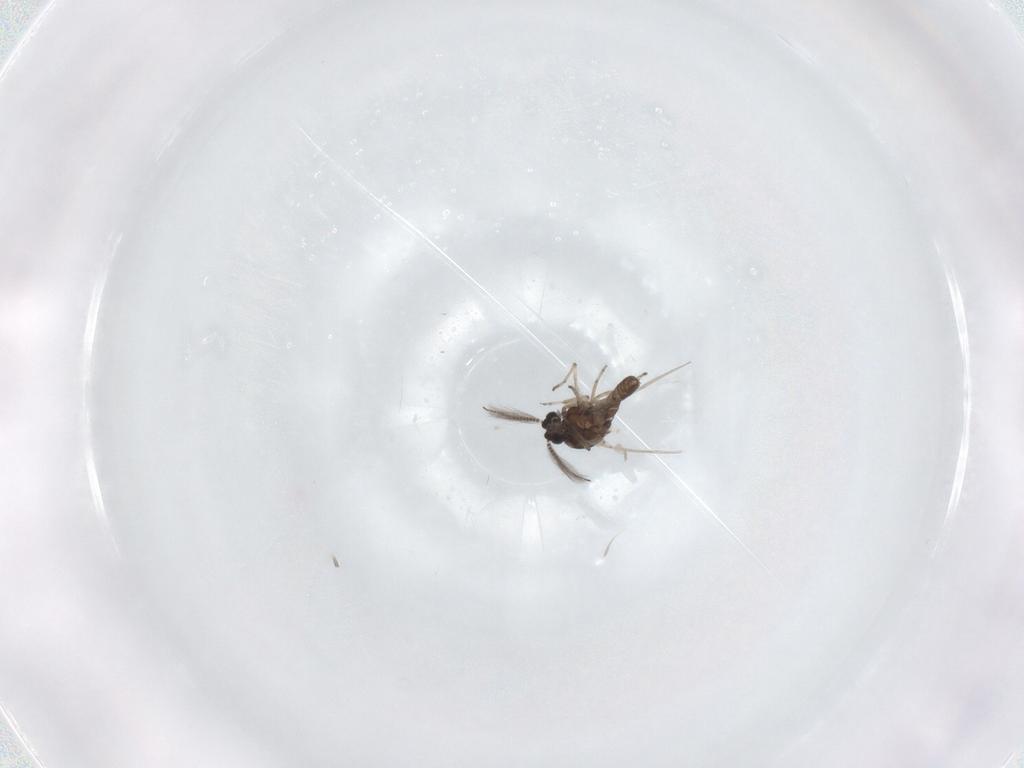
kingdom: Animalia
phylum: Arthropoda
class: Insecta
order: Diptera
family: Ceratopogonidae
